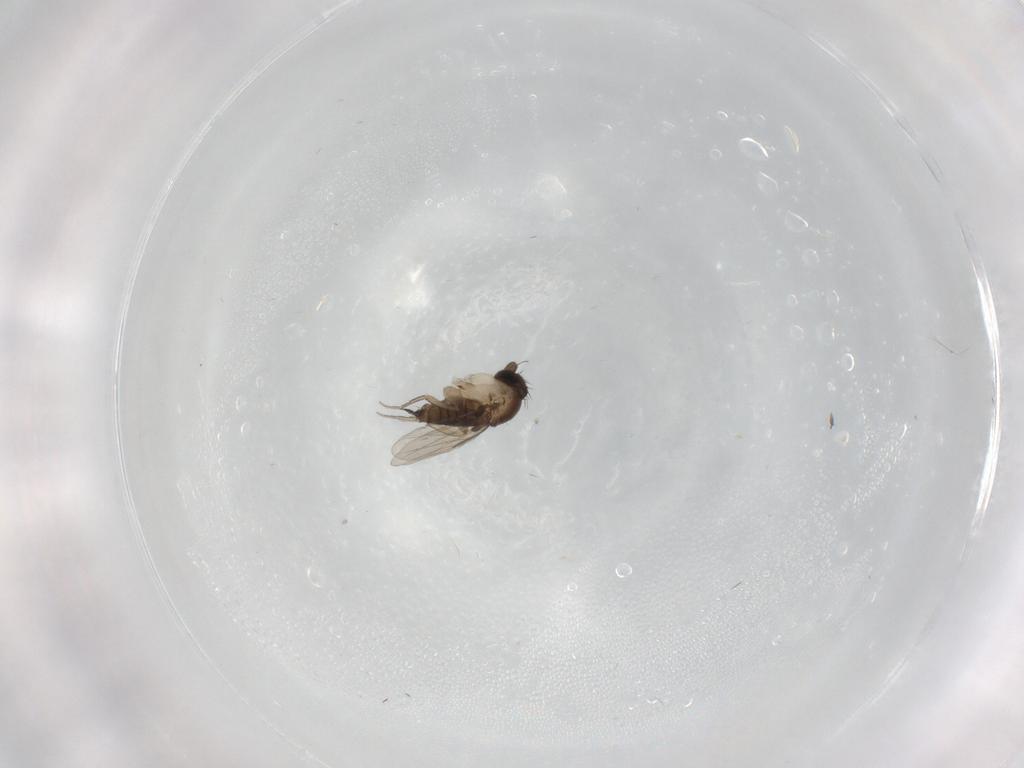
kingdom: Animalia
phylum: Arthropoda
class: Insecta
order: Diptera
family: Phoridae
